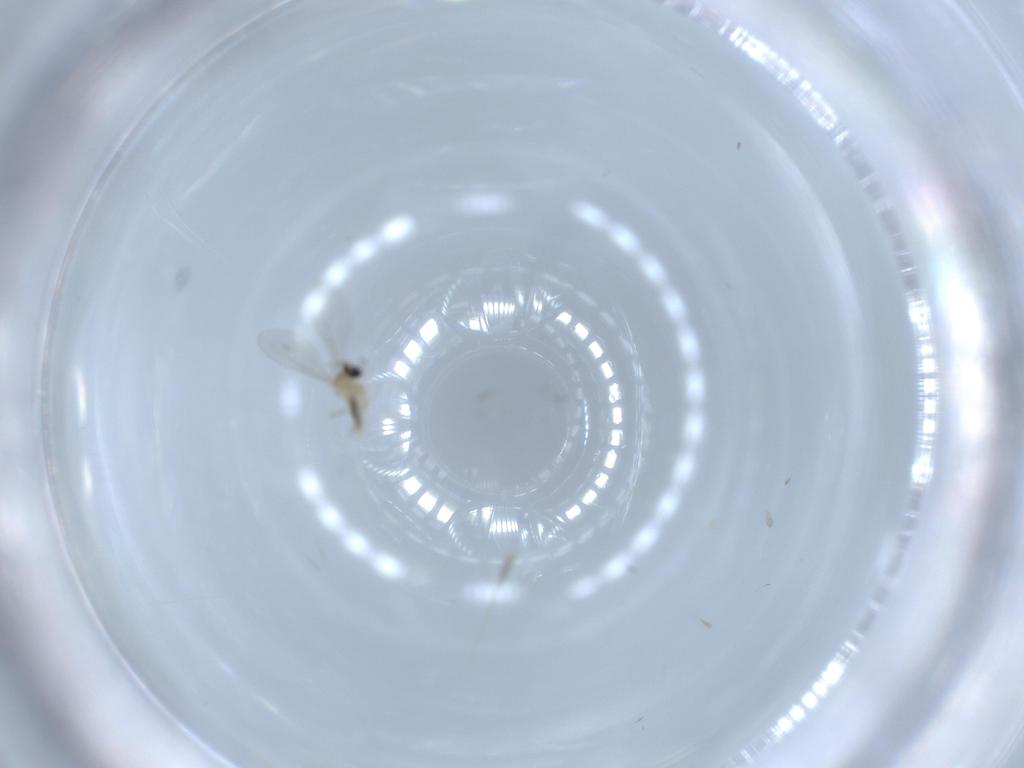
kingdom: Animalia
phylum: Arthropoda
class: Insecta
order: Diptera
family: Cecidomyiidae
